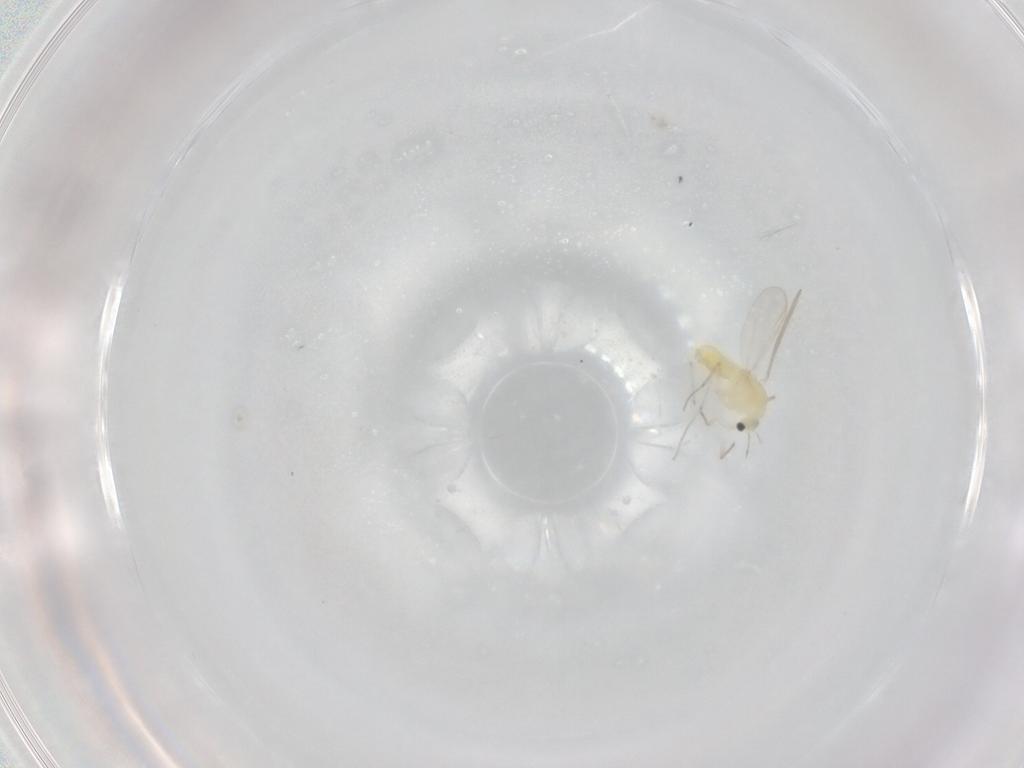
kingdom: Animalia
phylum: Arthropoda
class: Insecta
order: Diptera
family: Chironomidae
